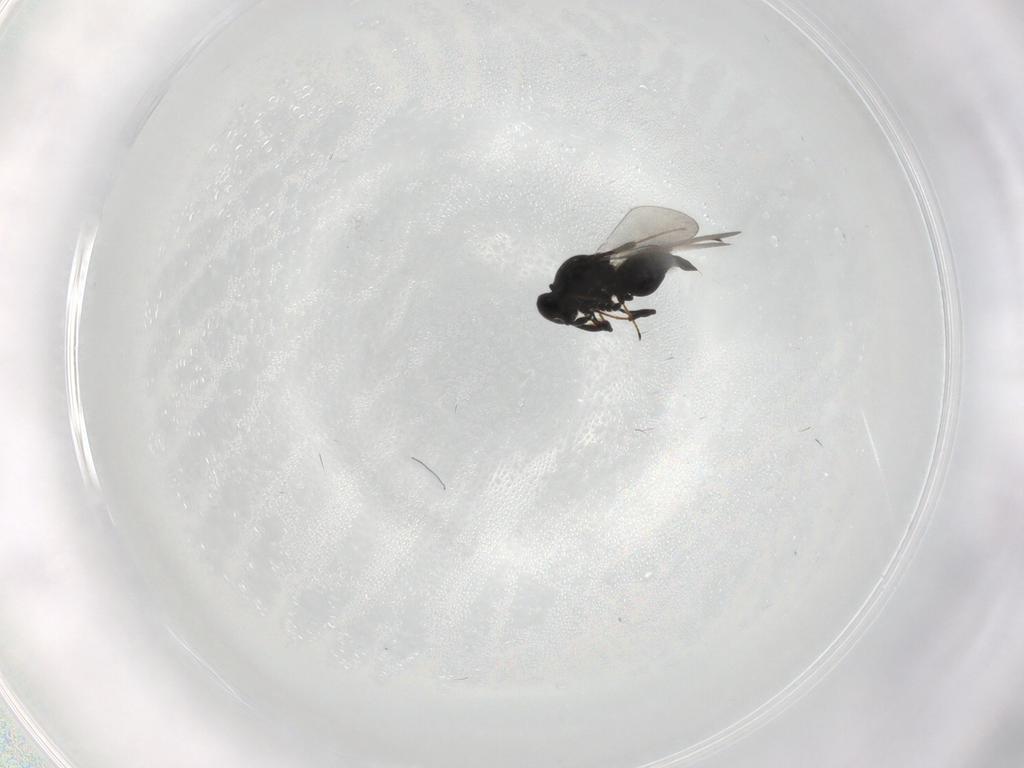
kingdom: Animalia
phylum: Arthropoda
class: Insecta
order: Hymenoptera
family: Platygastridae
